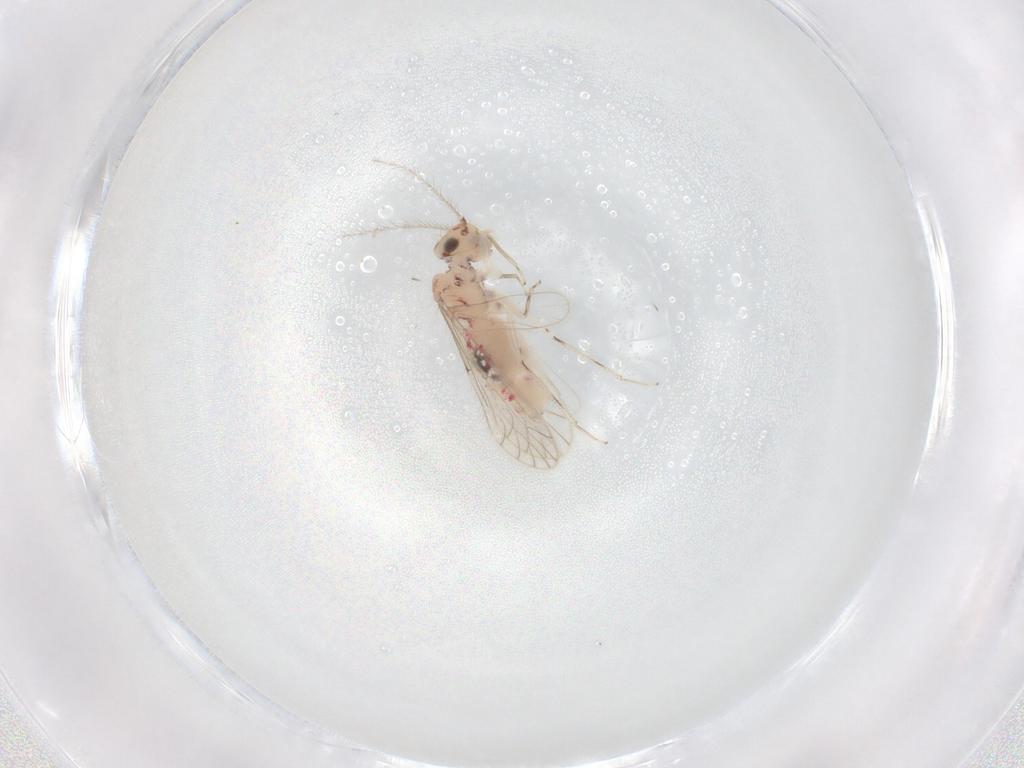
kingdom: Animalia
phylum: Arthropoda
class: Insecta
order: Psocodea
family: Caeciliusidae
